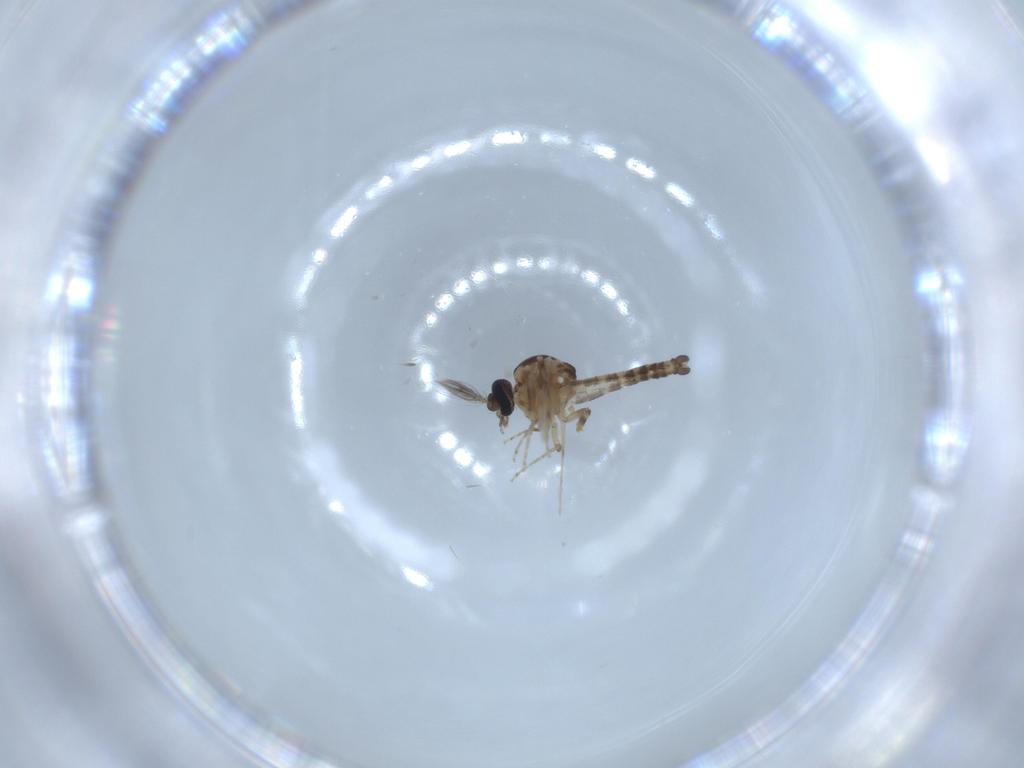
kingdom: Animalia
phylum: Arthropoda
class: Insecta
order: Diptera
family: Ceratopogonidae
